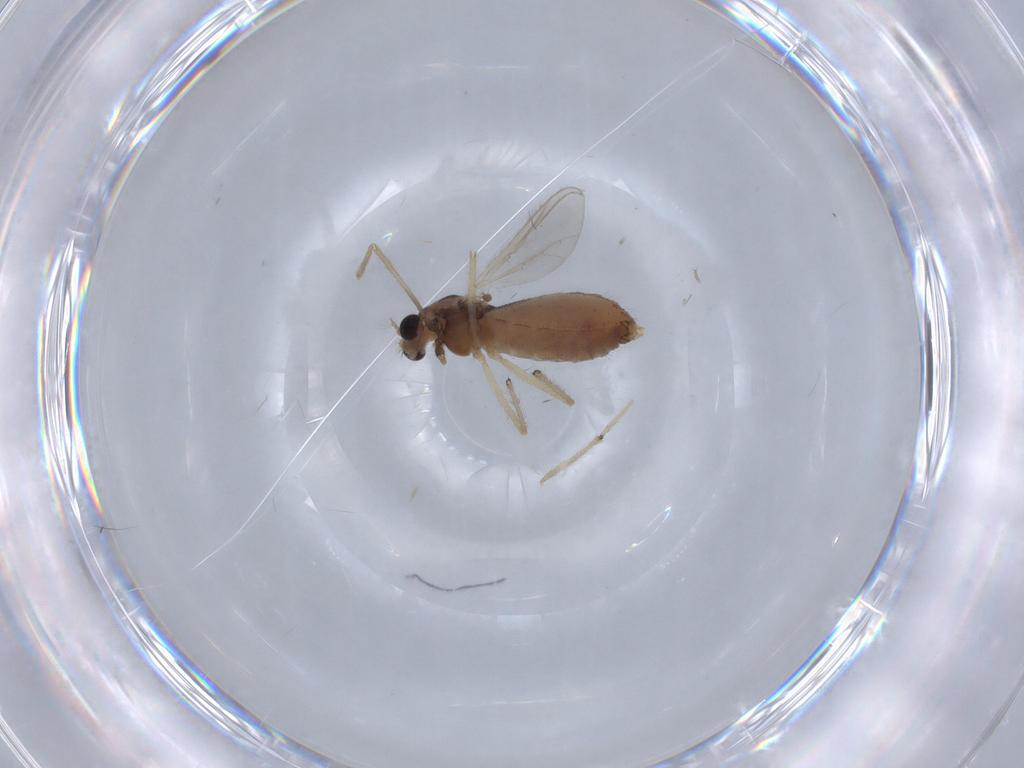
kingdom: Animalia
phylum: Arthropoda
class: Insecta
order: Diptera
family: Chironomidae
